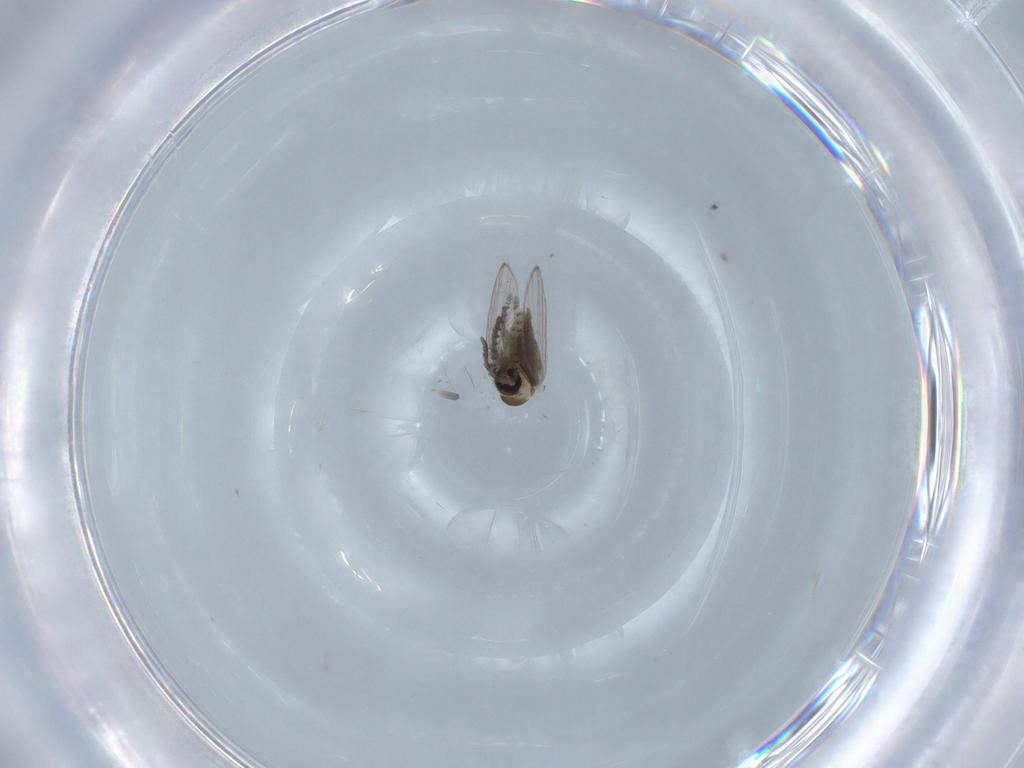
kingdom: Animalia
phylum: Arthropoda
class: Insecta
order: Diptera
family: Psychodidae
